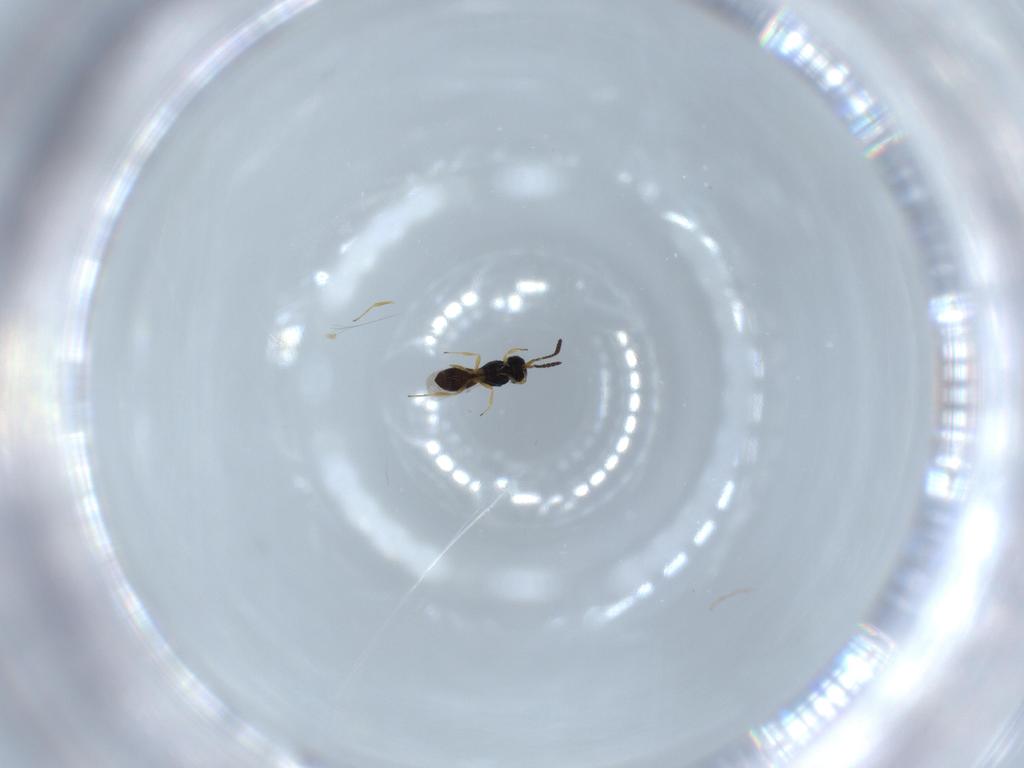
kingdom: Animalia
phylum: Arthropoda
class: Insecta
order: Hymenoptera
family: Scelionidae
